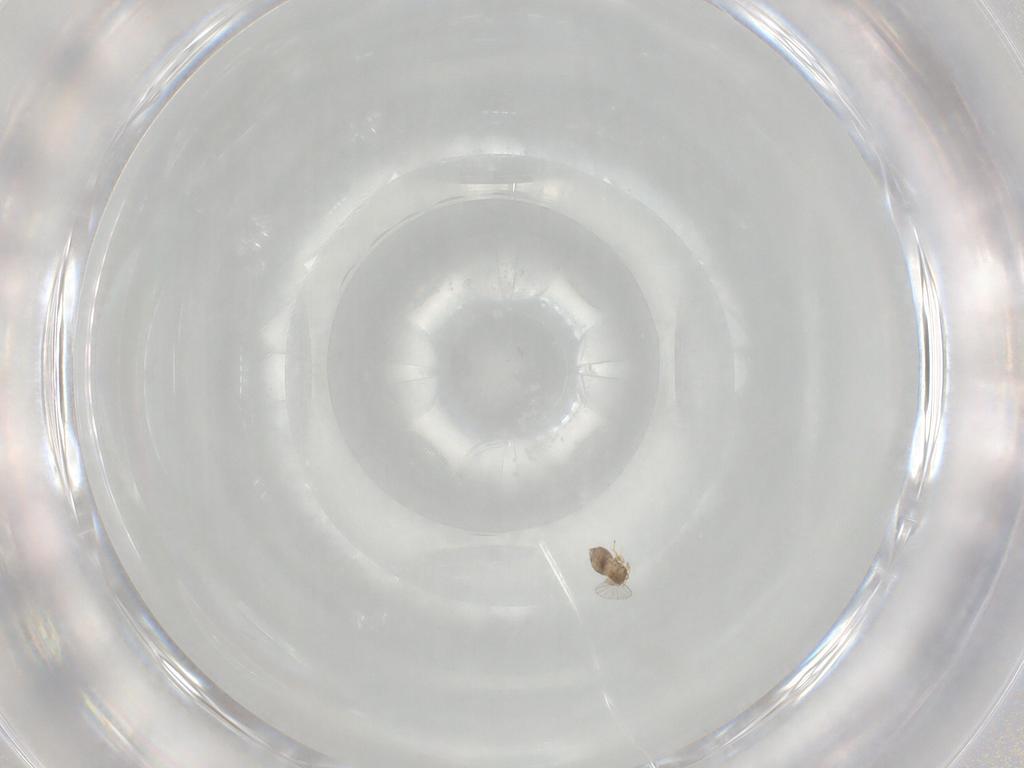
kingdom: Animalia
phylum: Arthropoda
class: Insecta
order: Hymenoptera
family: Trichogrammatidae
